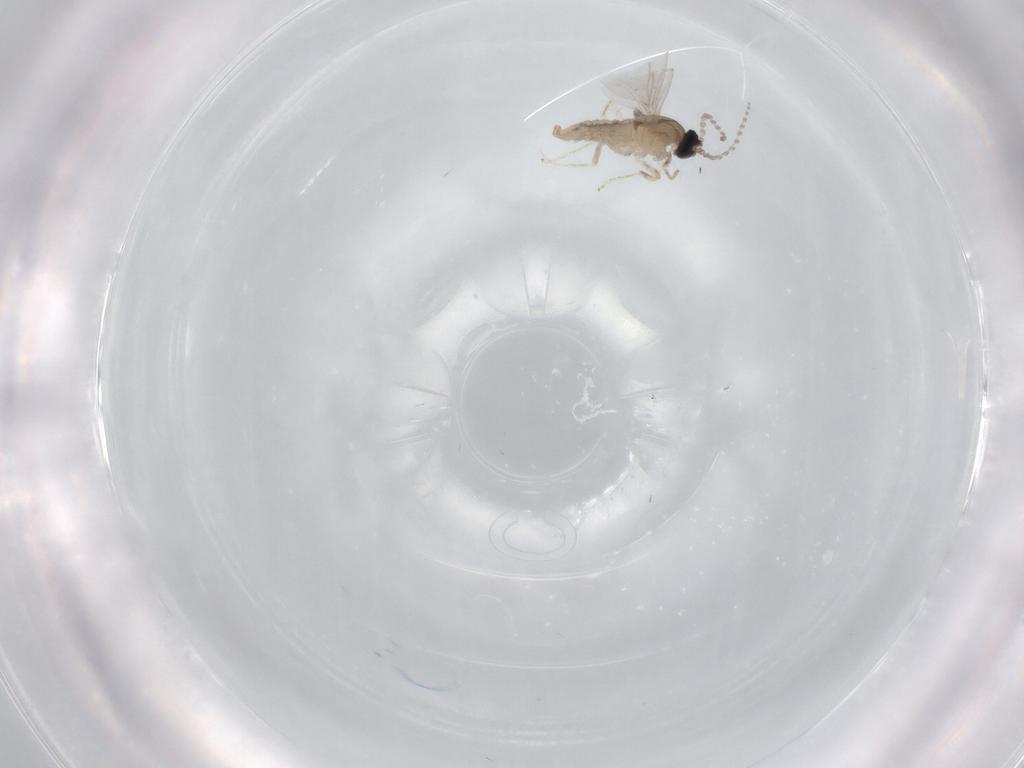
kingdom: Animalia
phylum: Arthropoda
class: Insecta
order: Diptera
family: Cecidomyiidae
